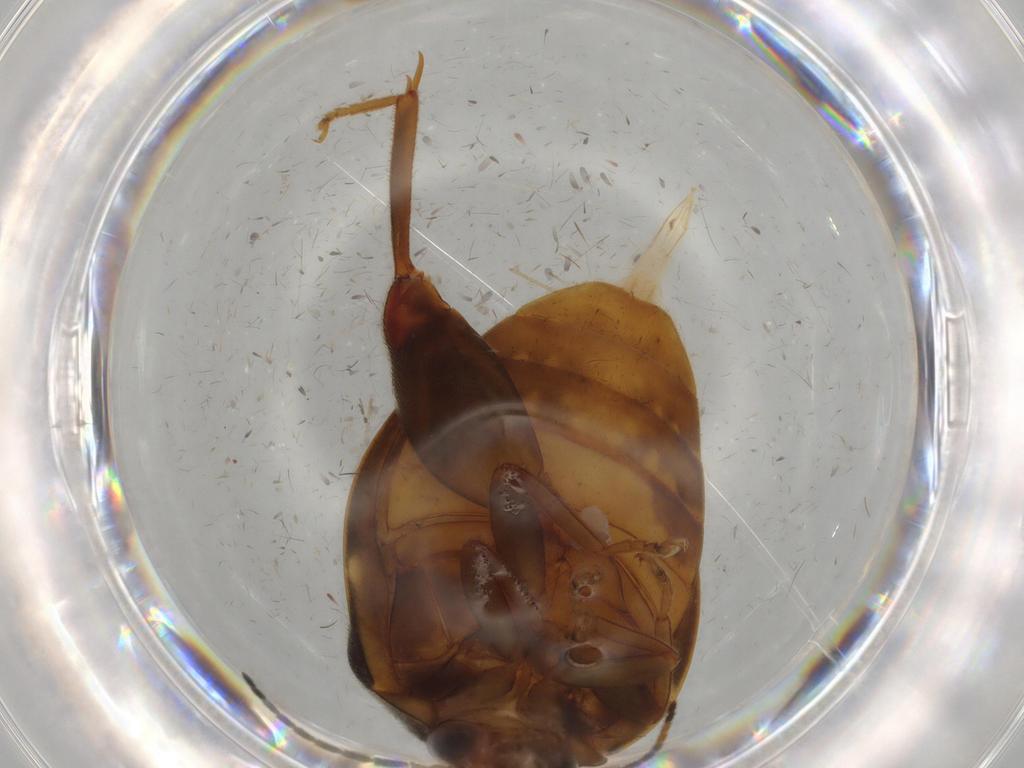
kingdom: Animalia
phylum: Arthropoda
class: Insecta
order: Coleoptera
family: Scirtidae
